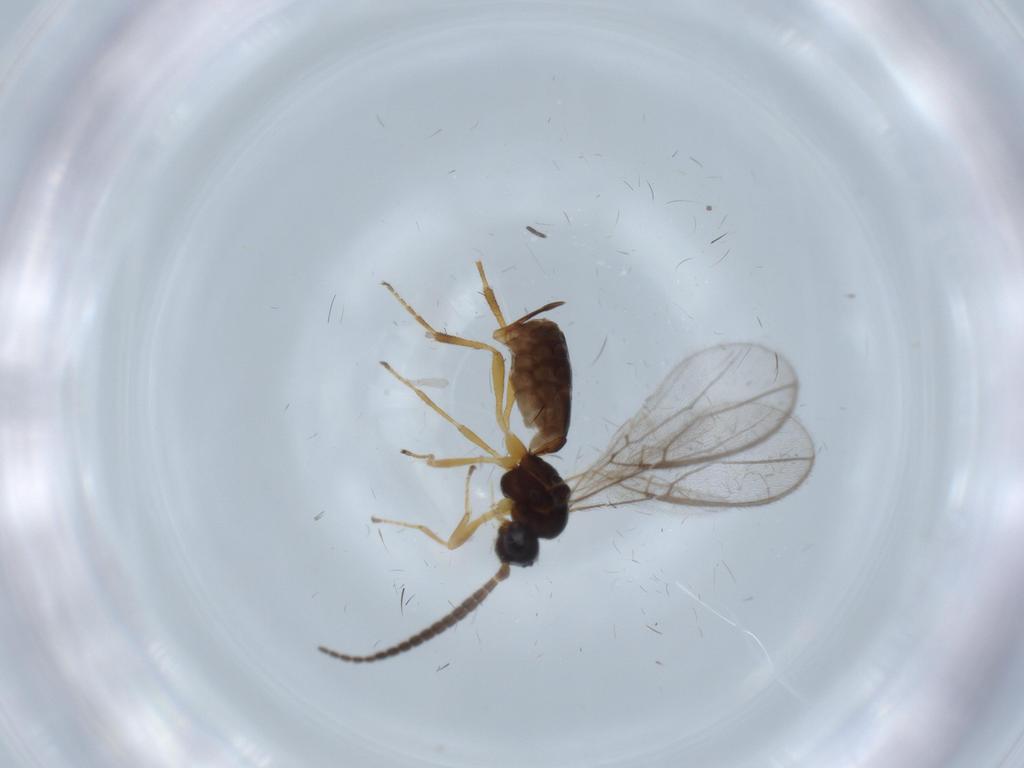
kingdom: Animalia
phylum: Arthropoda
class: Insecta
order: Hymenoptera
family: Braconidae
